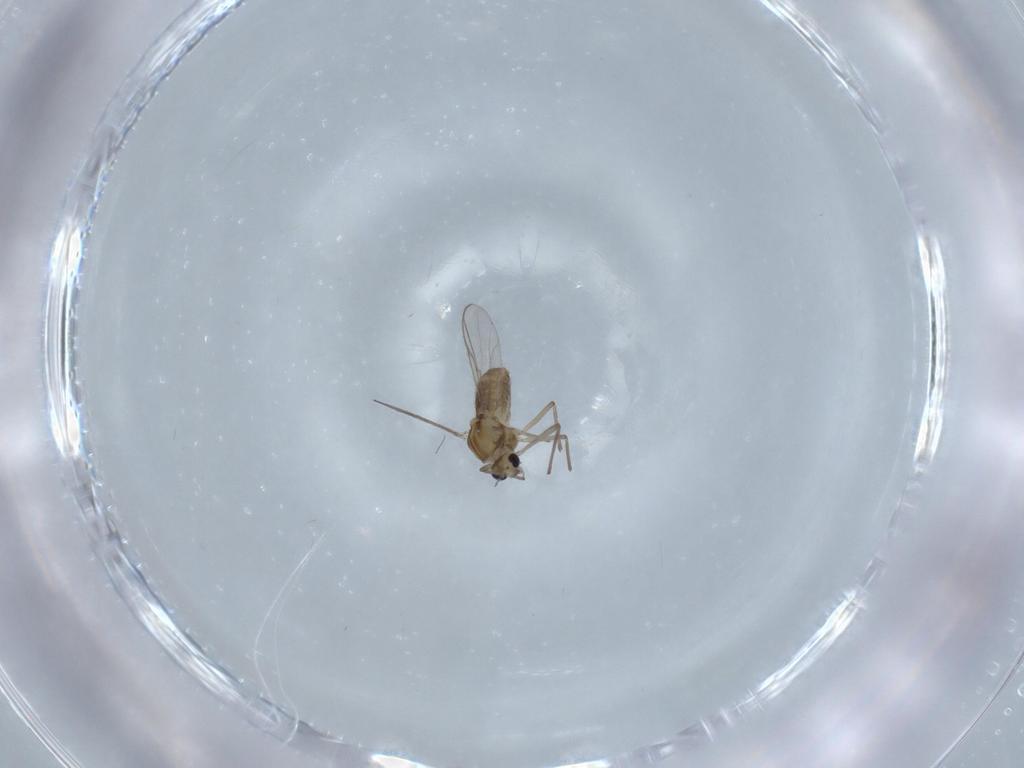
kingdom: Animalia
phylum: Arthropoda
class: Insecta
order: Diptera
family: Chironomidae
